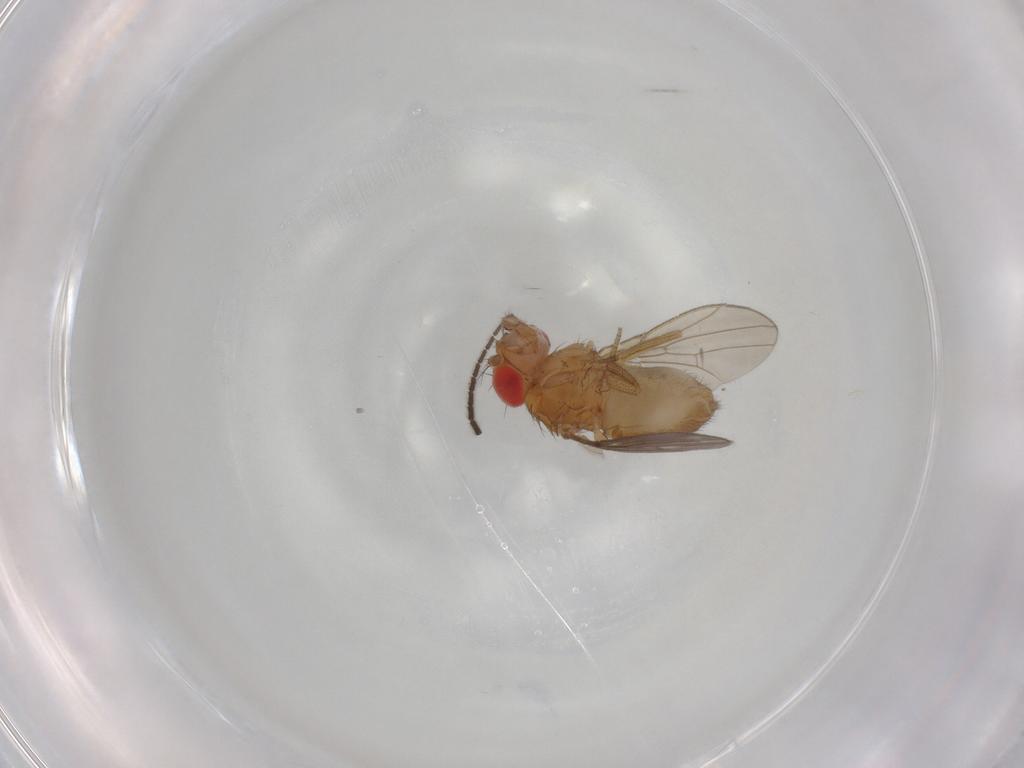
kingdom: Animalia
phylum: Arthropoda
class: Insecta
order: Diptera
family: Drosophilidae
